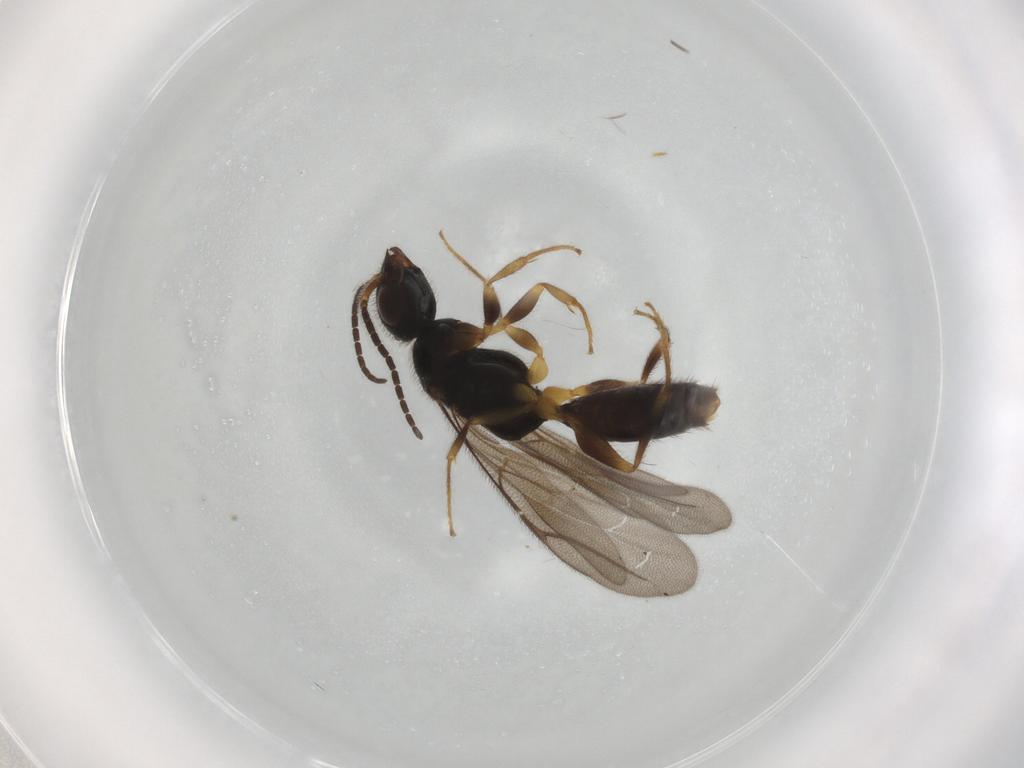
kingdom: Animalia
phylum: Arthropoda
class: Insecta
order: Hymenoptera
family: Bethylidae
